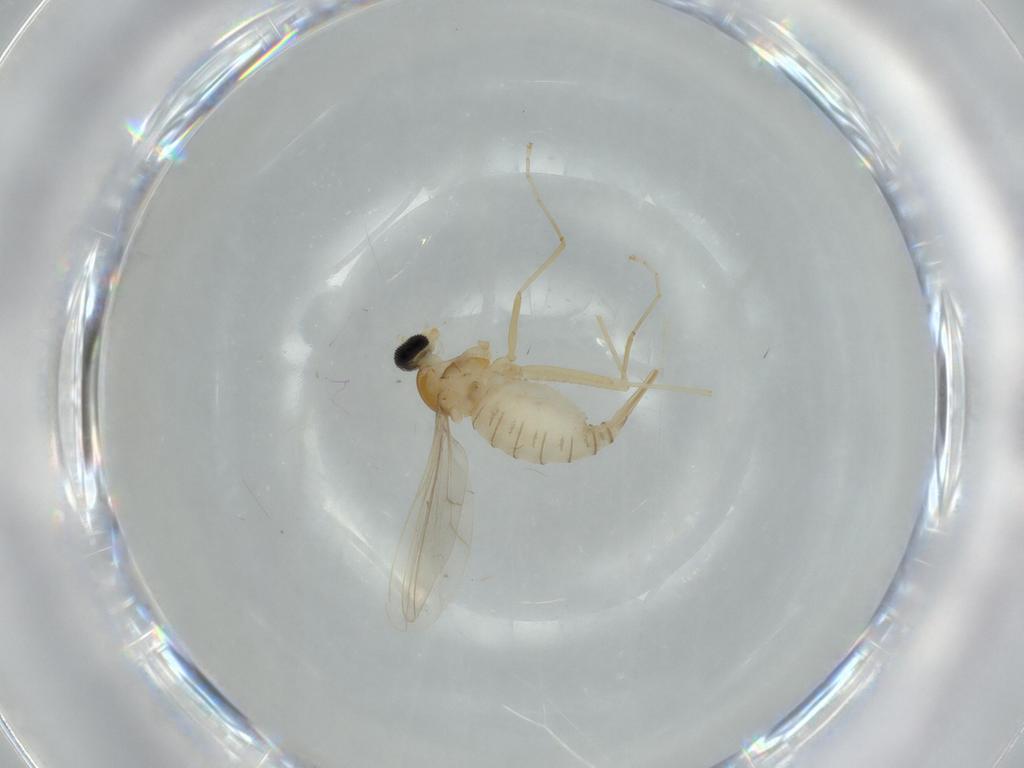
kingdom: Animalia
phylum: Arthropoda
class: Insecta
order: Diptera
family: Cecidomyiidae
